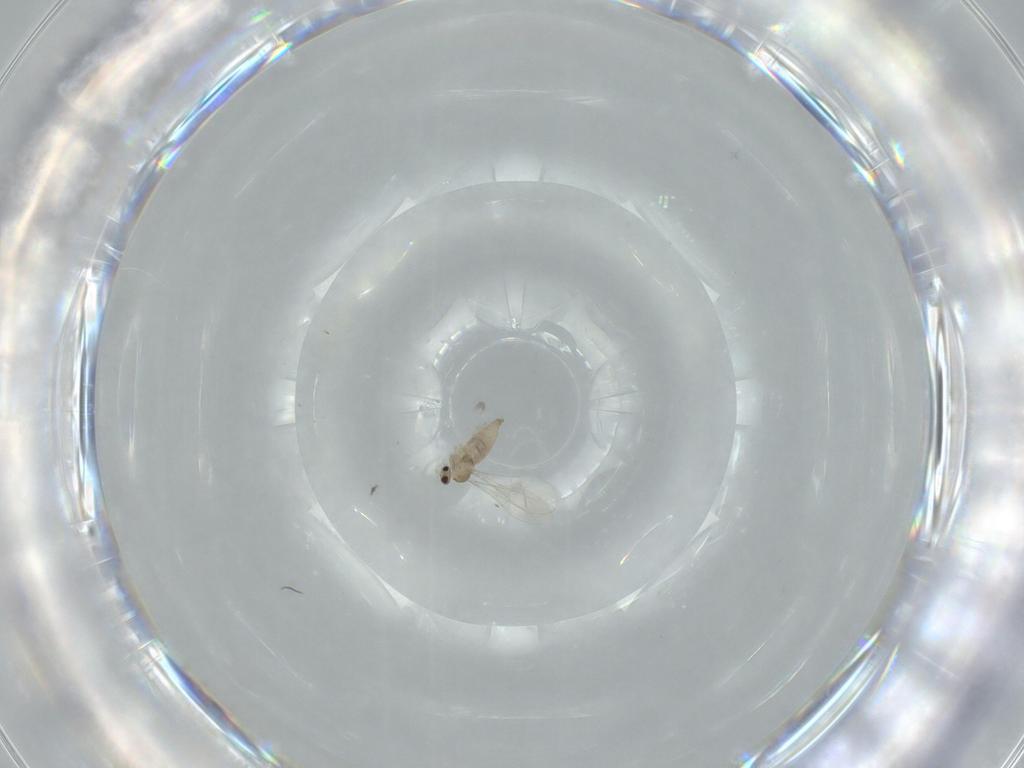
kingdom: Animalia
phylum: Arthropoda
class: Insecta
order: Diptera
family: Cecidomyiidae
